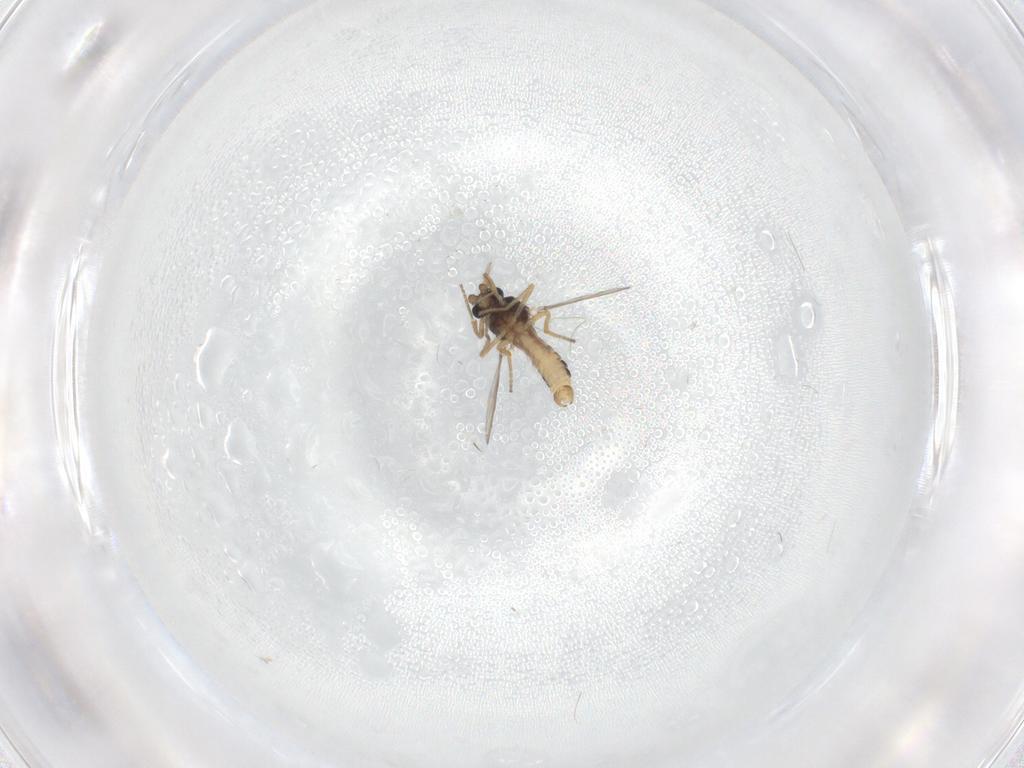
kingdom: Animalia
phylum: Arthropoda
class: Insecta
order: Diptera
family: Ceratopogonidae
